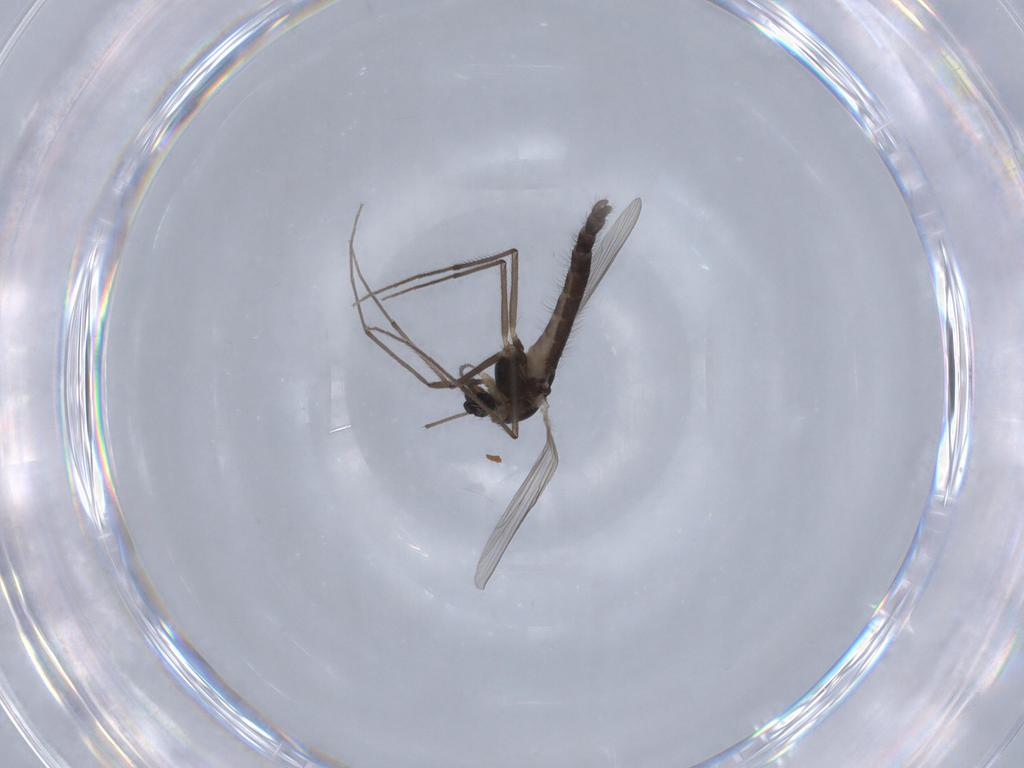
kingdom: Animalia
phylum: Arthropoda
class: Insecta
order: Diptera
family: Chironomidae
